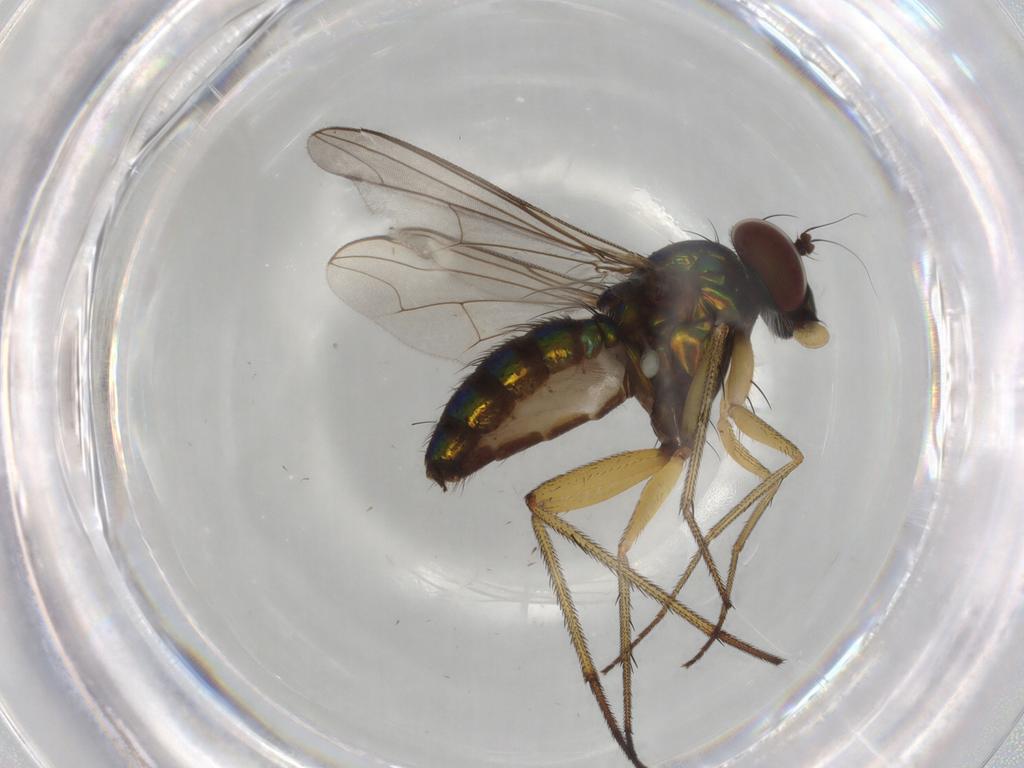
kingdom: Animalia
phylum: Arthropoda
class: Insecta
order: Diptera
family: Dolichopodidae
